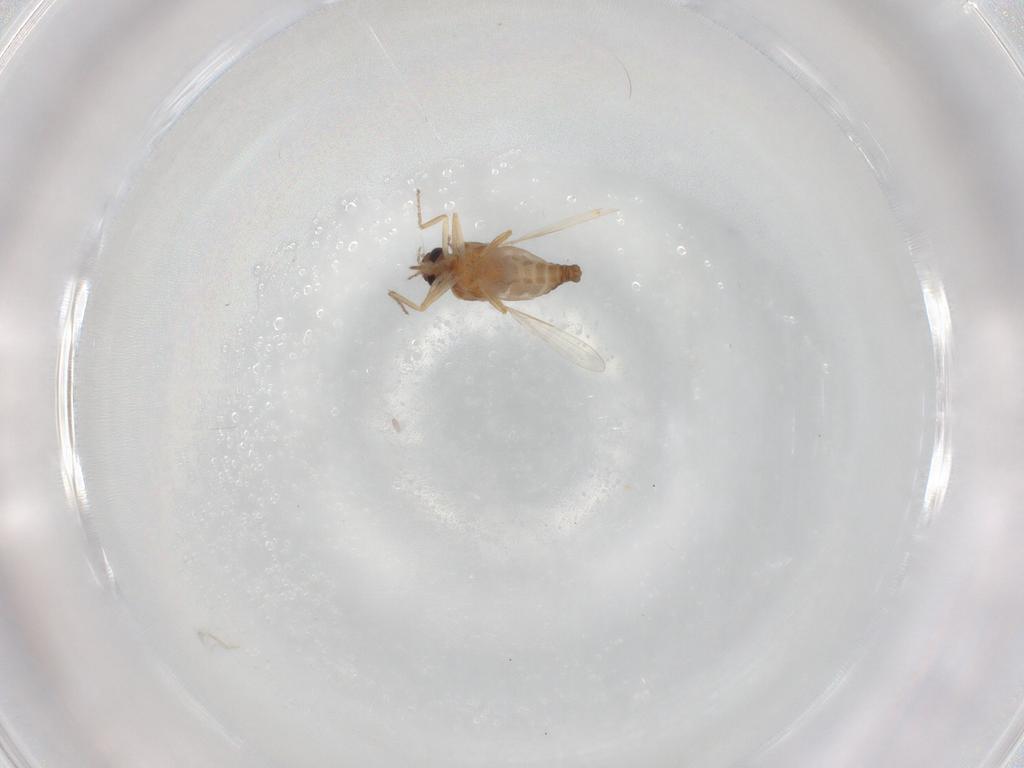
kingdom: Animalia
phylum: Arthropoda
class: Insecta
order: Diptera
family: Ceratopogonidae
